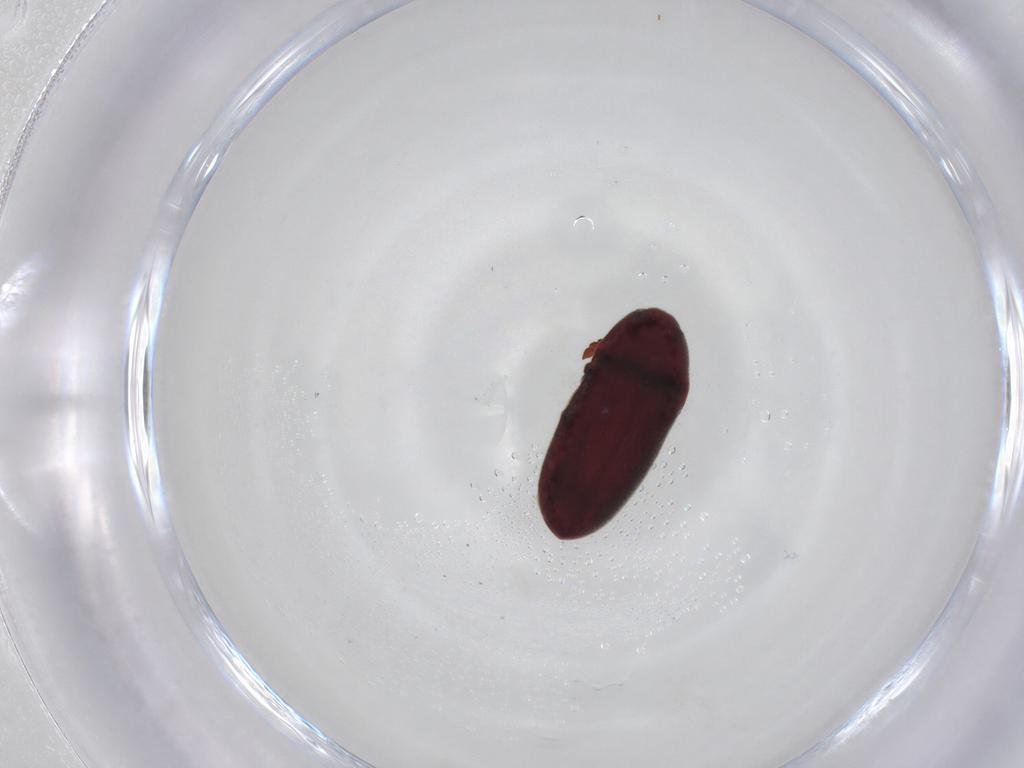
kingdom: Animalia
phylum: Arthropoda
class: Insecta
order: Coleoptera
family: Throscidae
